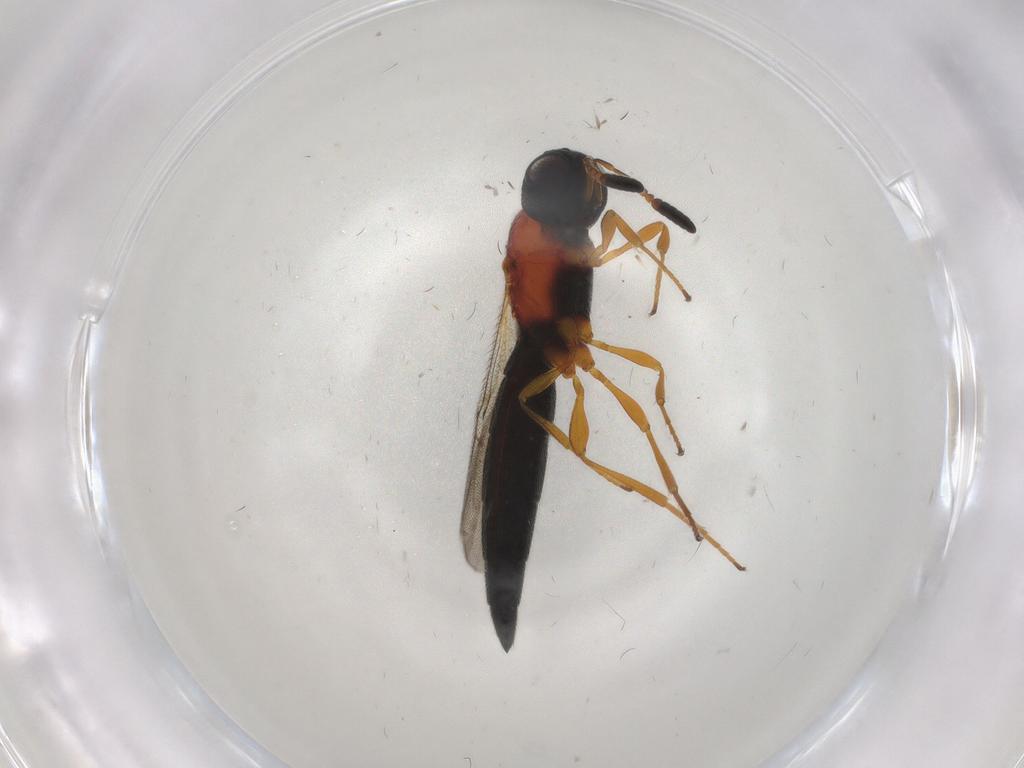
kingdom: Animalia
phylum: Arthropoda
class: Insecta
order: Hymenoptera
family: Scelionidae
